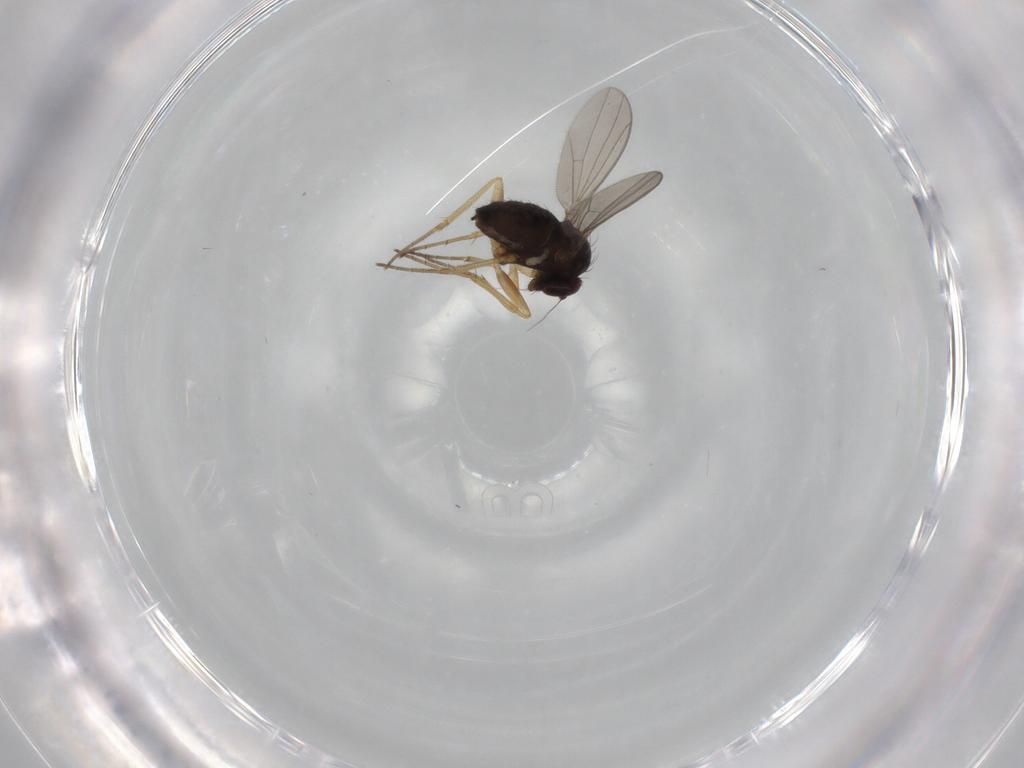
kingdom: Animalia
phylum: Arthropoda
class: Insecta
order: Diptera
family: Dolichopodidae
